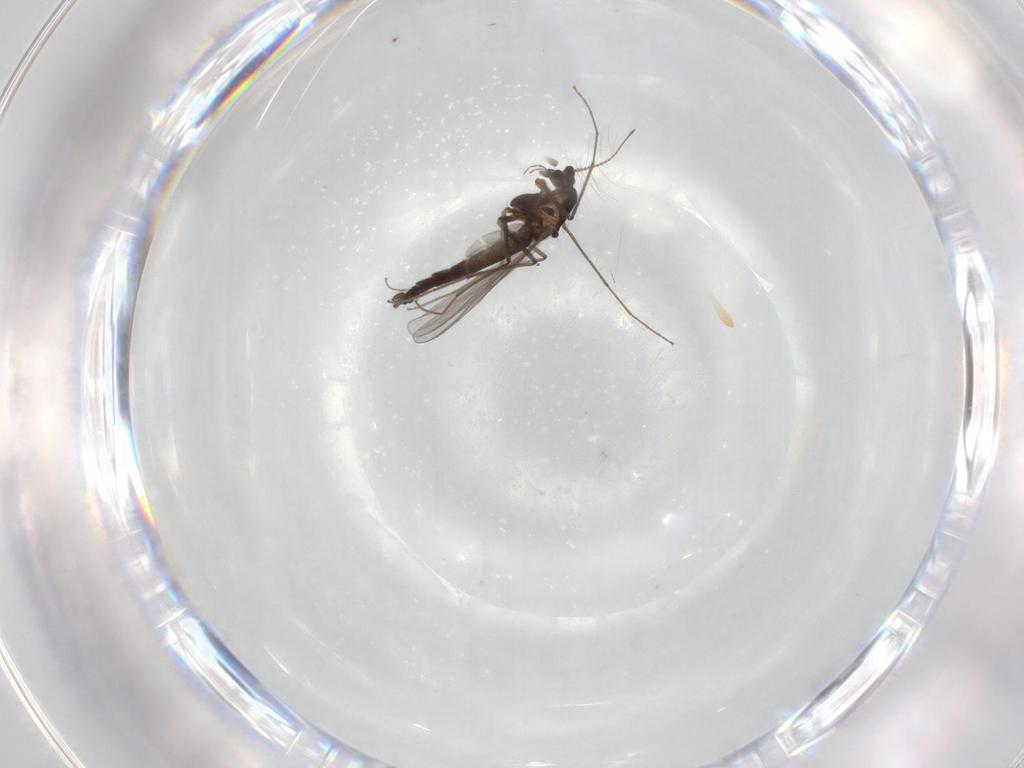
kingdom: Animalia
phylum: Arthropoda
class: Insecta
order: Diptera
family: Chironomidae
